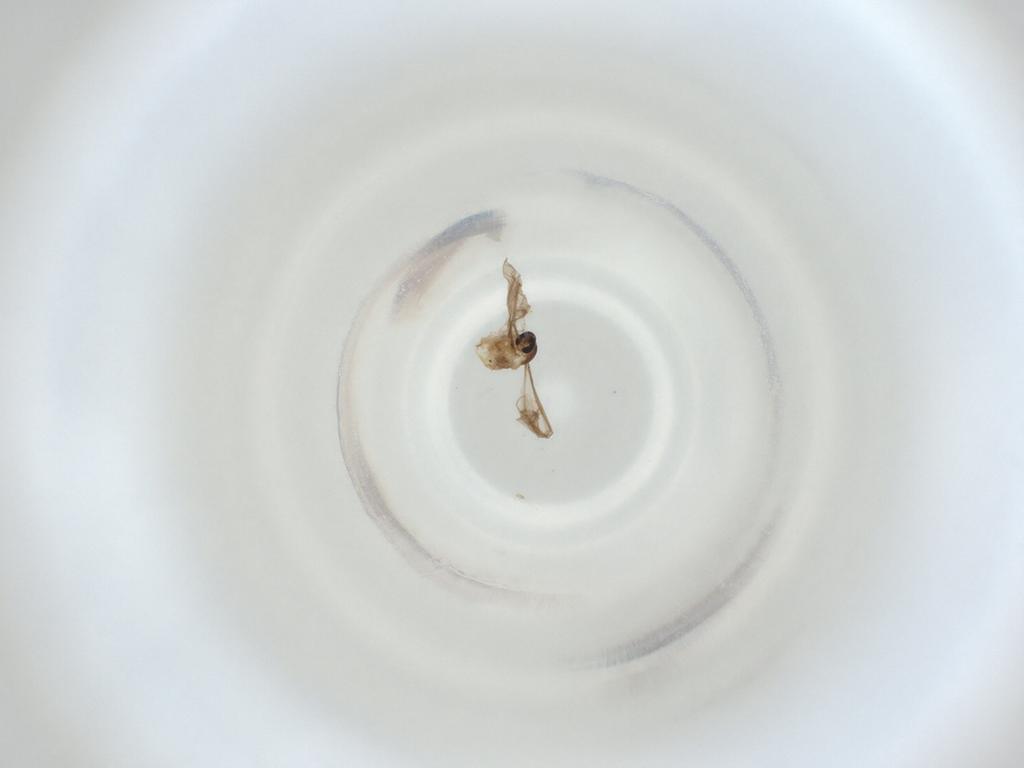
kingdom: Animalia
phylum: Arthropoda
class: Insecta
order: Diptera
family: Cecidomyiidae
